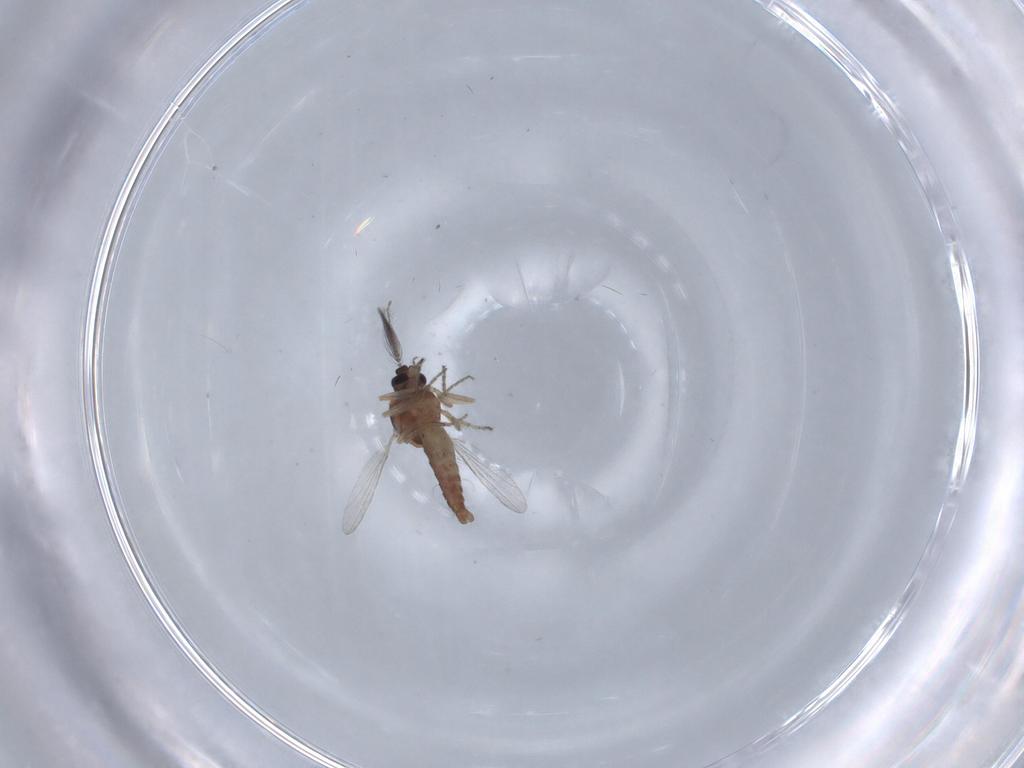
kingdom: Animalia
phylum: Arthropoda
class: Insecta
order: Diptera
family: Ceratopogonidae
